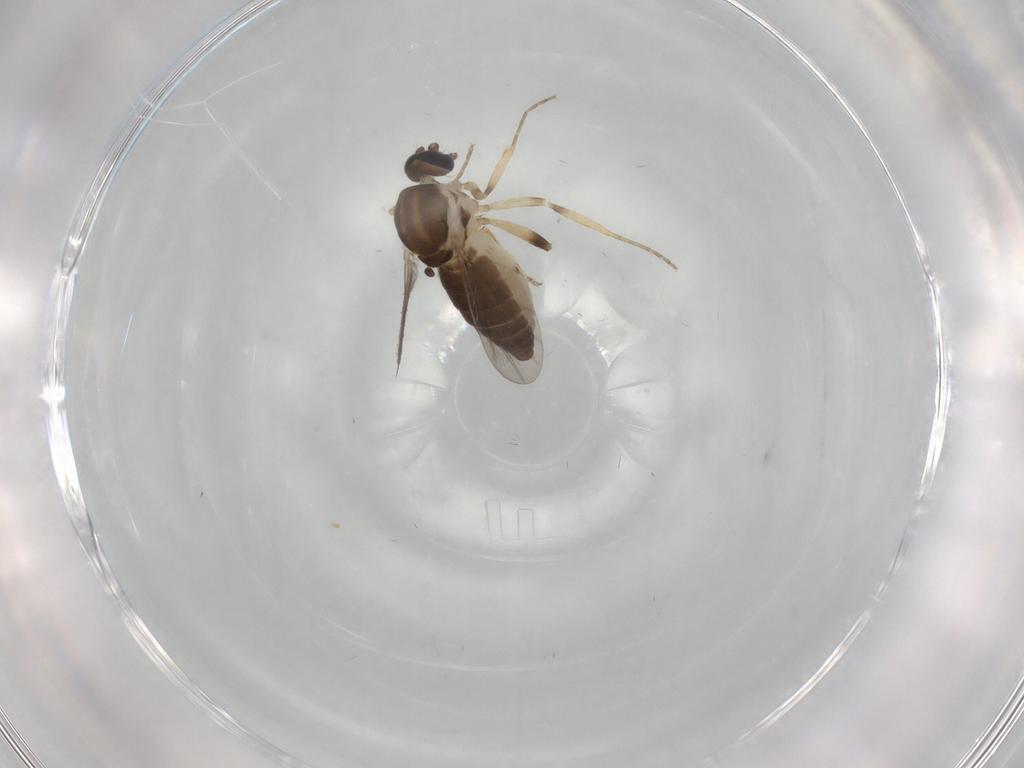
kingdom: Animalia
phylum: Arthropoda
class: Insecta
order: Diptera
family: Ceratopogonidae
